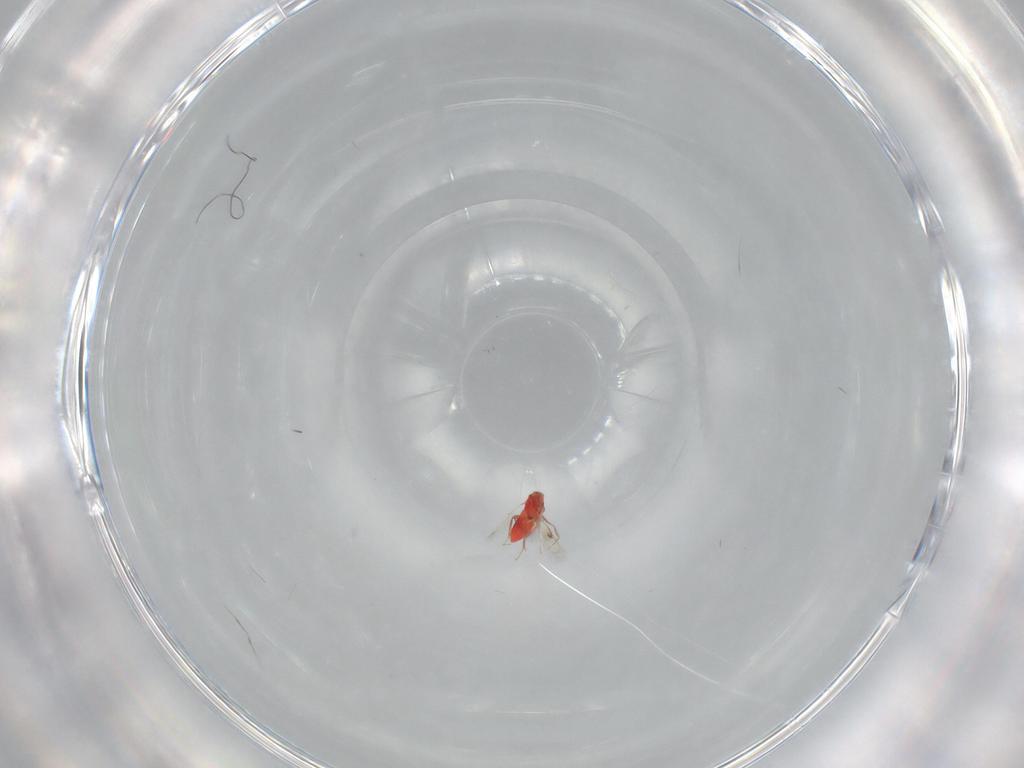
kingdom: Animalia
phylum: Arthropoda
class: Insecta
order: Hymenoptera
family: Trichogrammatidae
